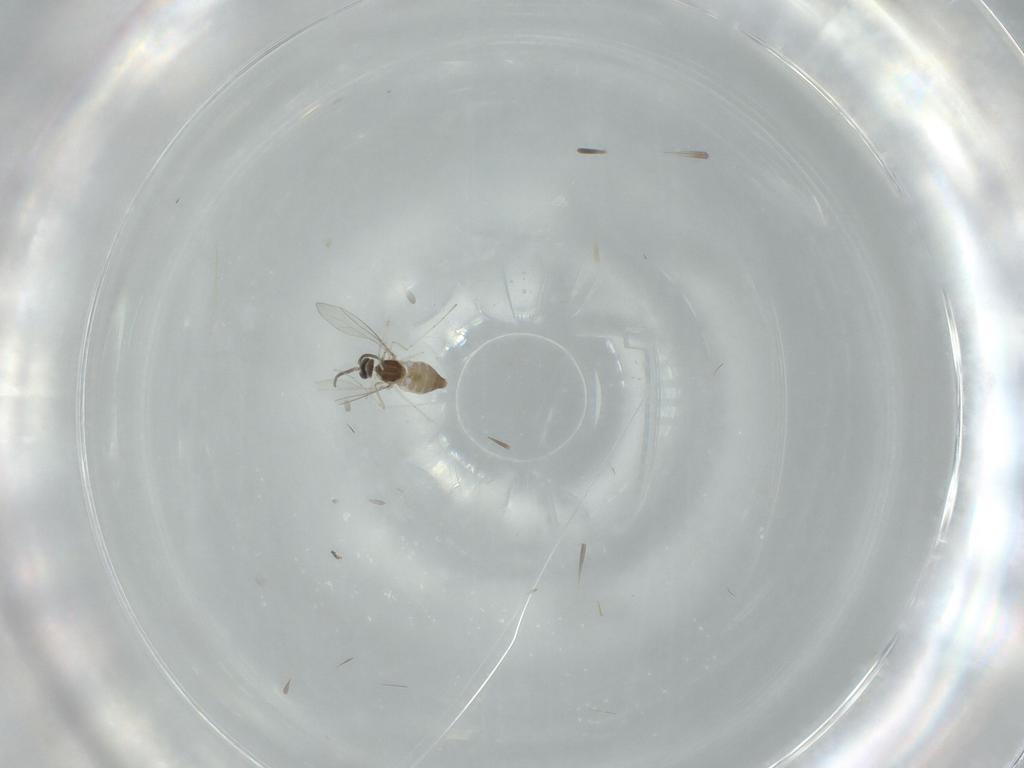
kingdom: Animalia
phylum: Arthropoda
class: Insecta
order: Diptera
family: Cecidomyiidae
